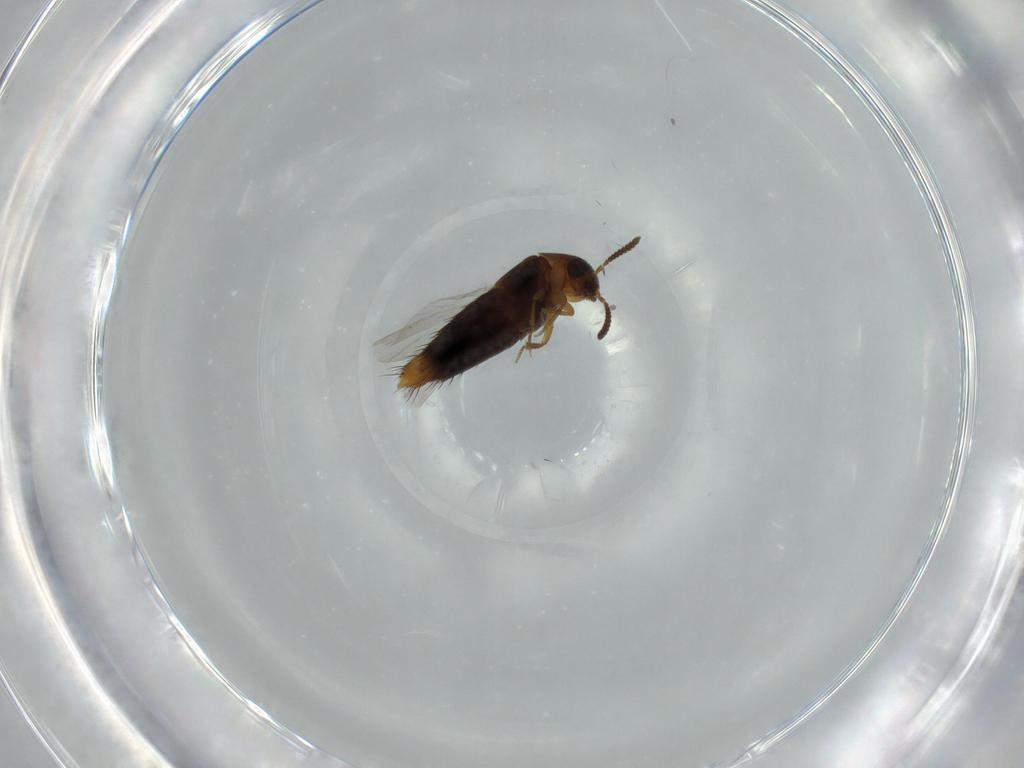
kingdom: Animalia
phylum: Arthropoda
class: Insecta
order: Coleoptera
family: Staphylinidae
